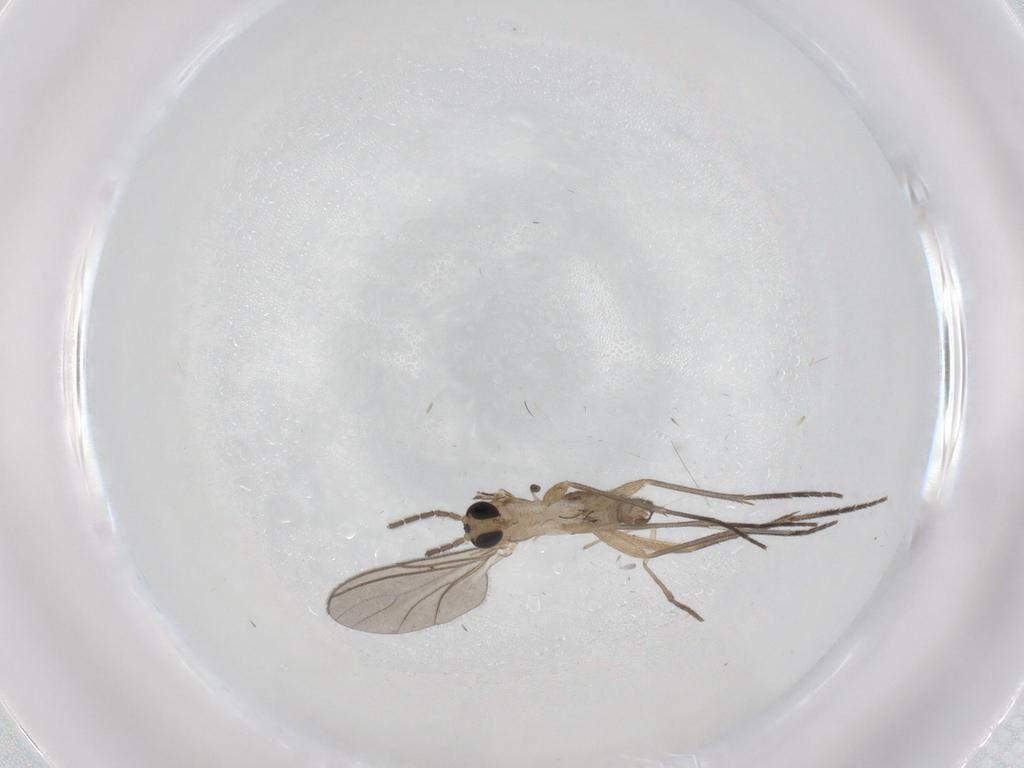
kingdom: Animalia
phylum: Arthropoda
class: Insecta
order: Diptera
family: Sciaridae
